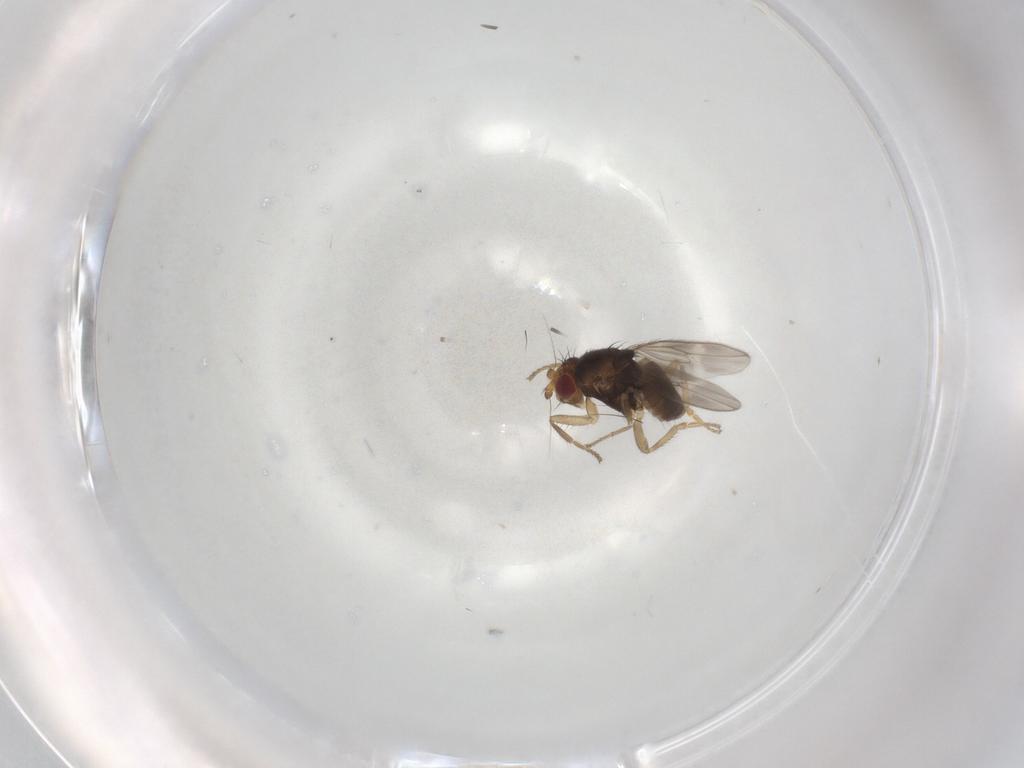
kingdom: Animalia
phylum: Arthropoda
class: Insecta
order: Diptera
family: Sphaeroceridae
